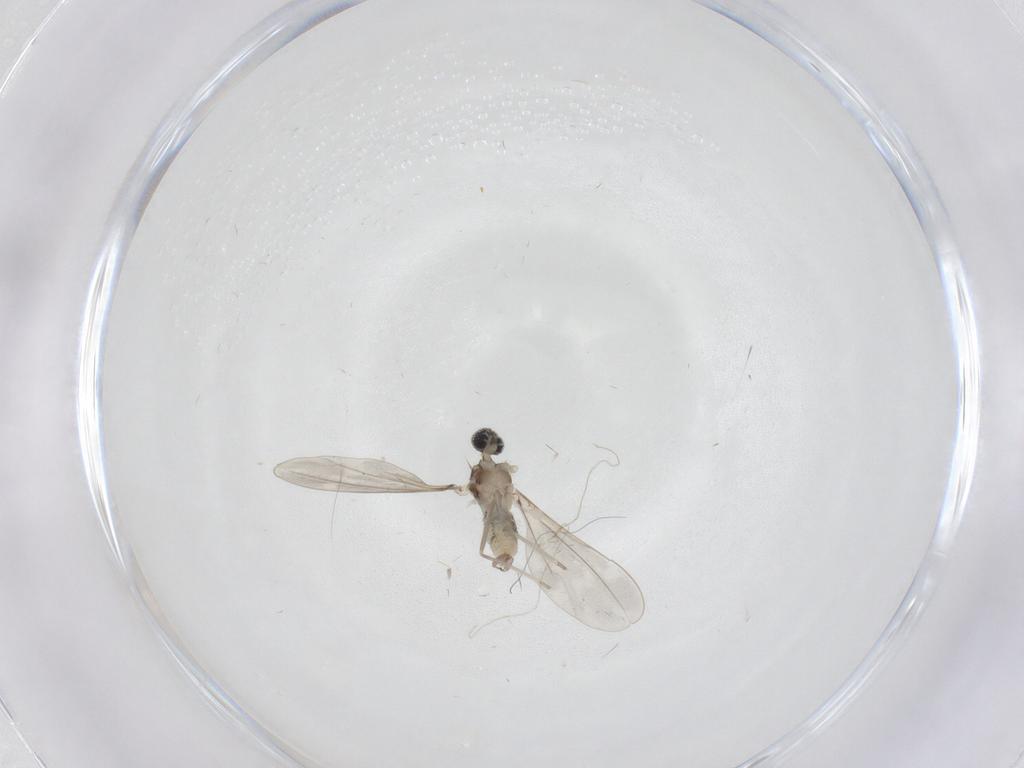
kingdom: Animalia
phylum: Arthropoda
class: Insecta
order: Diptera
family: Cecidomyiidae
